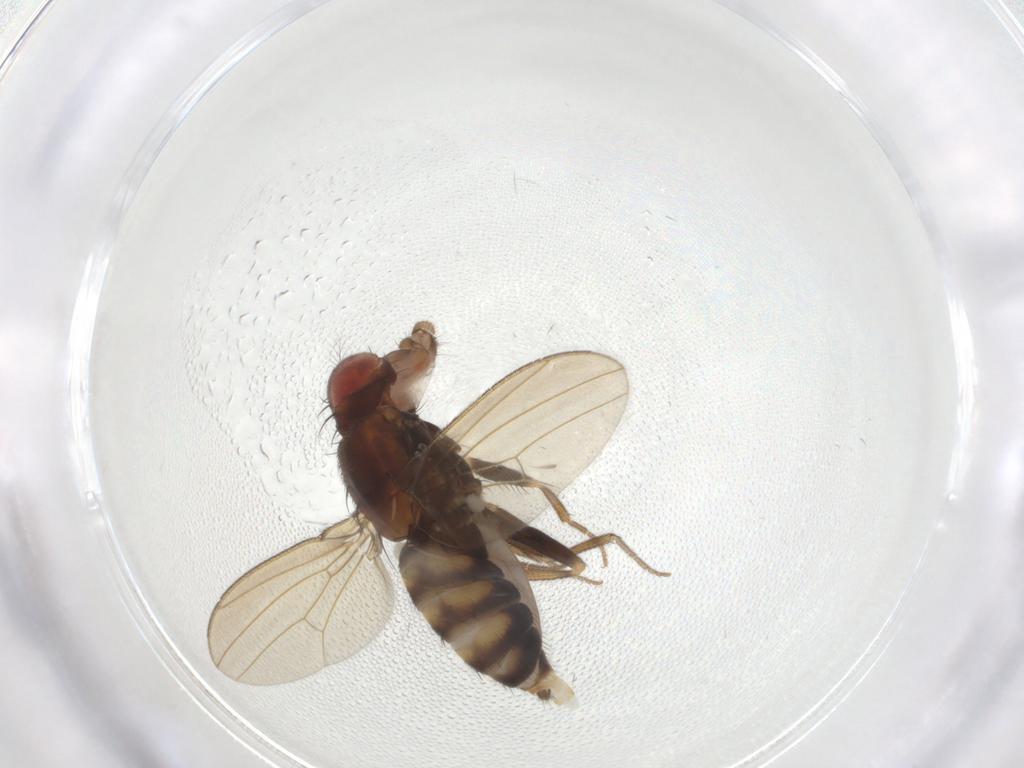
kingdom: Animalia
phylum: Arthropoda
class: Insecta
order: Diptera
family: Drosophilidae
